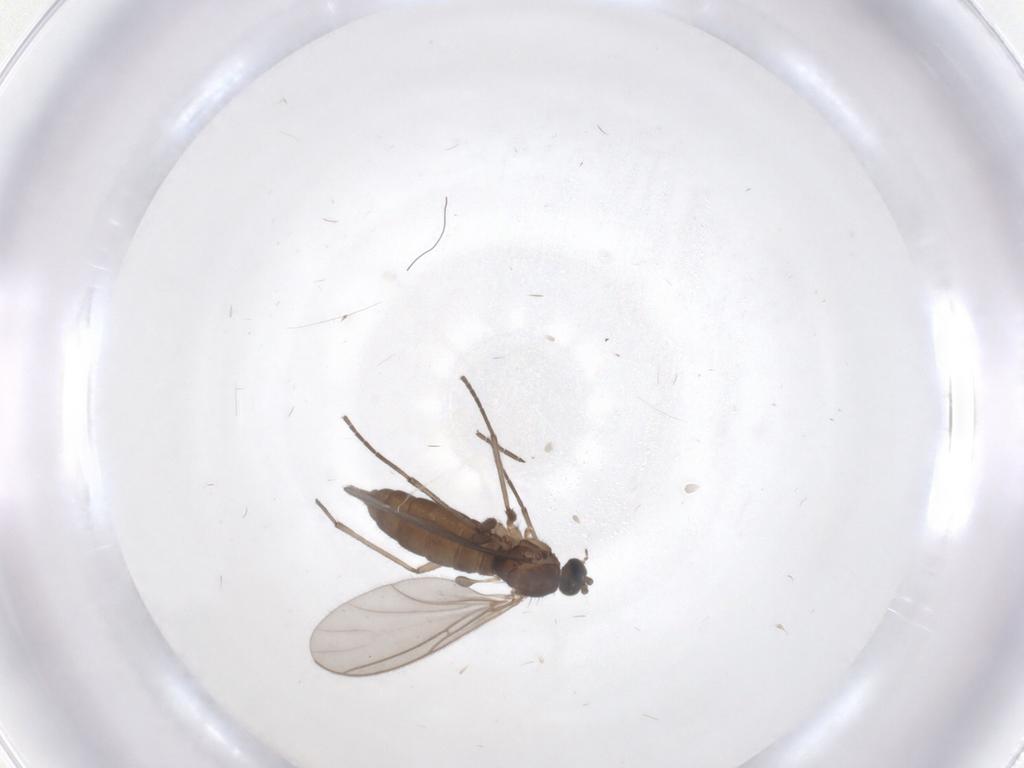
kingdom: Animalia
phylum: Arthropoda
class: Insecta
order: Diptera
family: Sciaridae
